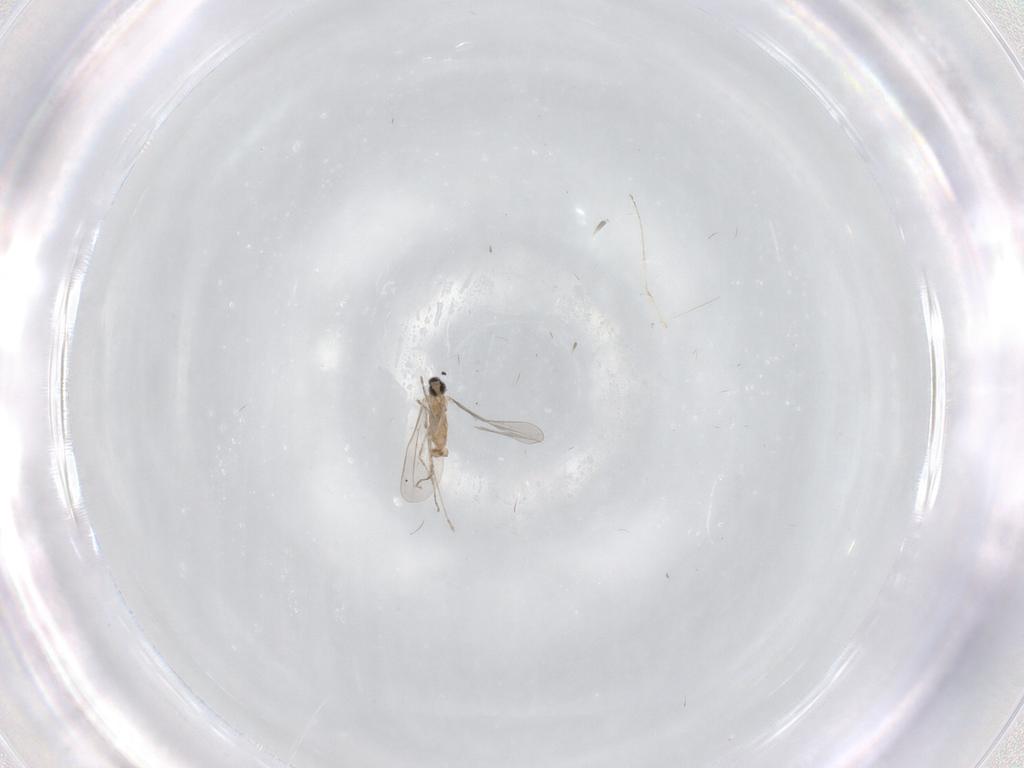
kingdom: Animalia
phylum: Arthropoda
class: Insecta
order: Diptera
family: Cecidomyiidae
